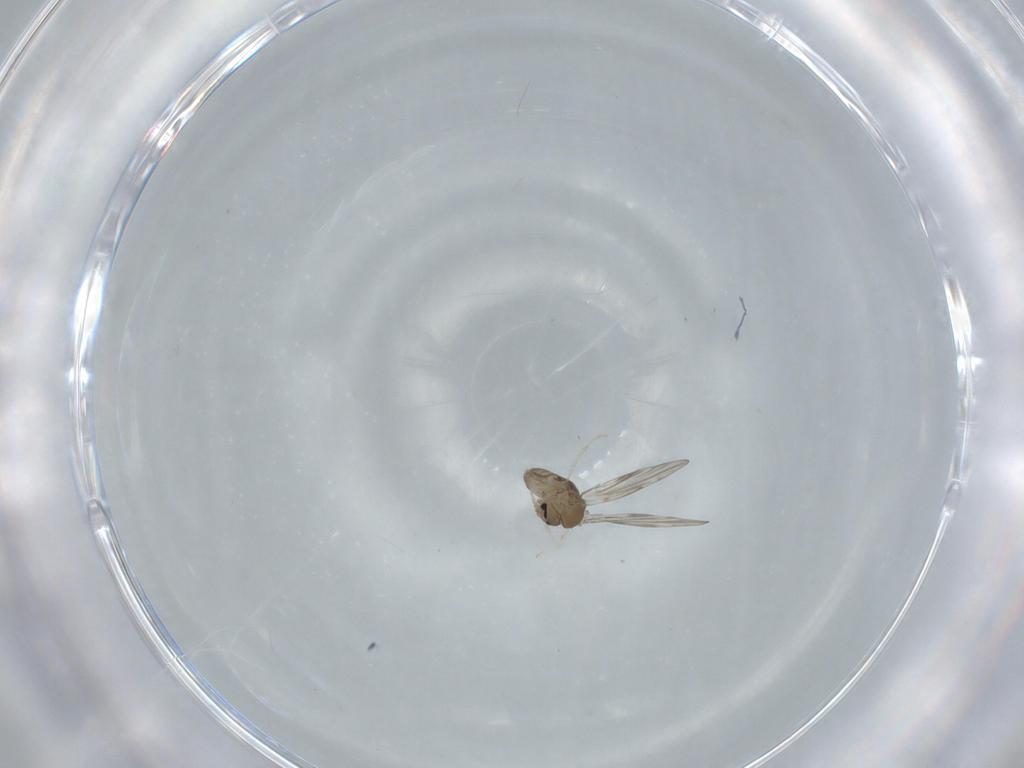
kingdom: Animalia
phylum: Arthropoda
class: Insecta
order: Diptera
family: Psychodidae
